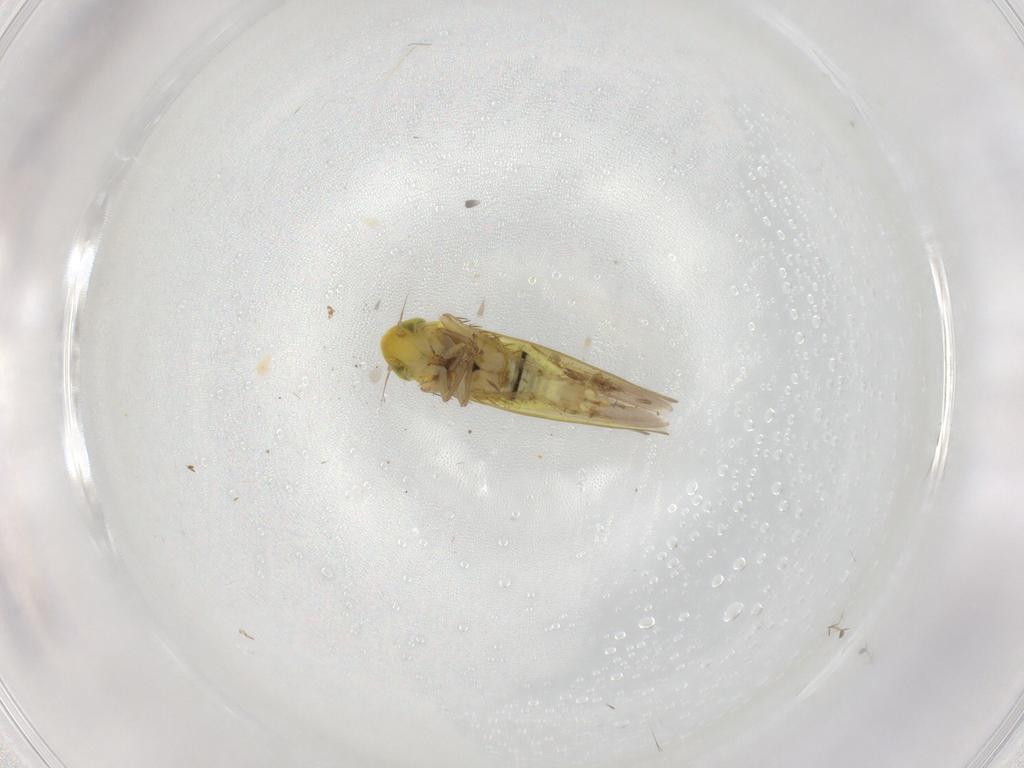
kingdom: Animalia
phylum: Arthropoda
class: Insecta
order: Hemiptera
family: Cicadellidae
